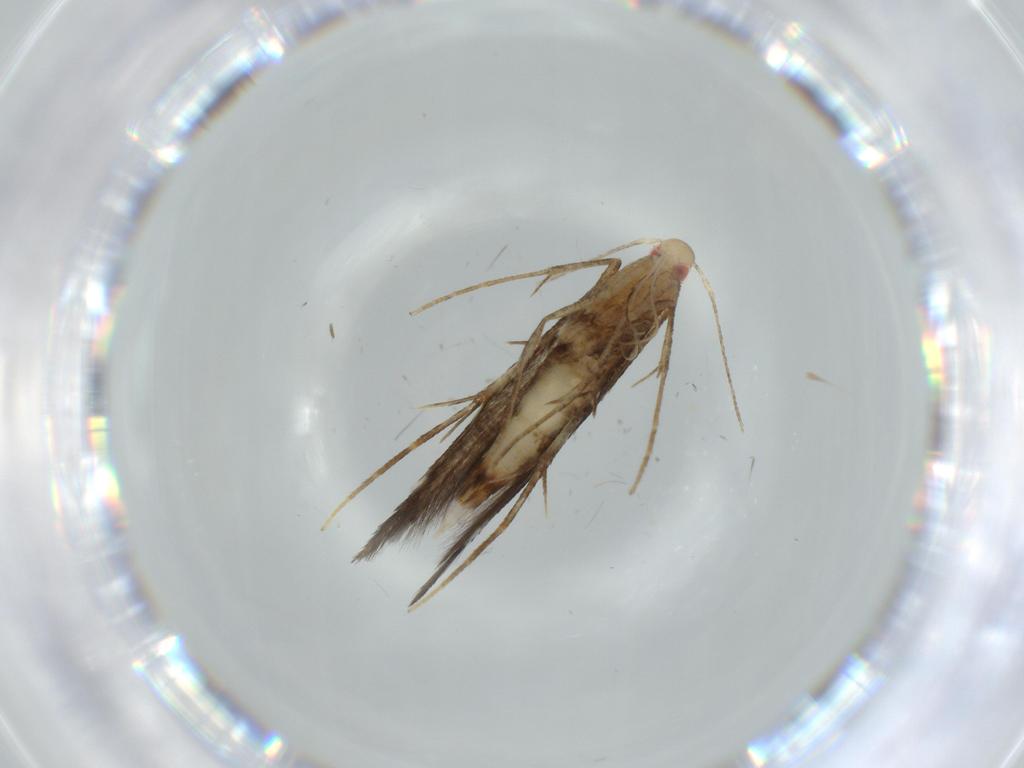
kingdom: Animalia
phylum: Arthropoda
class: Insecta
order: Lepidoptera
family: Cosmopterigidae
